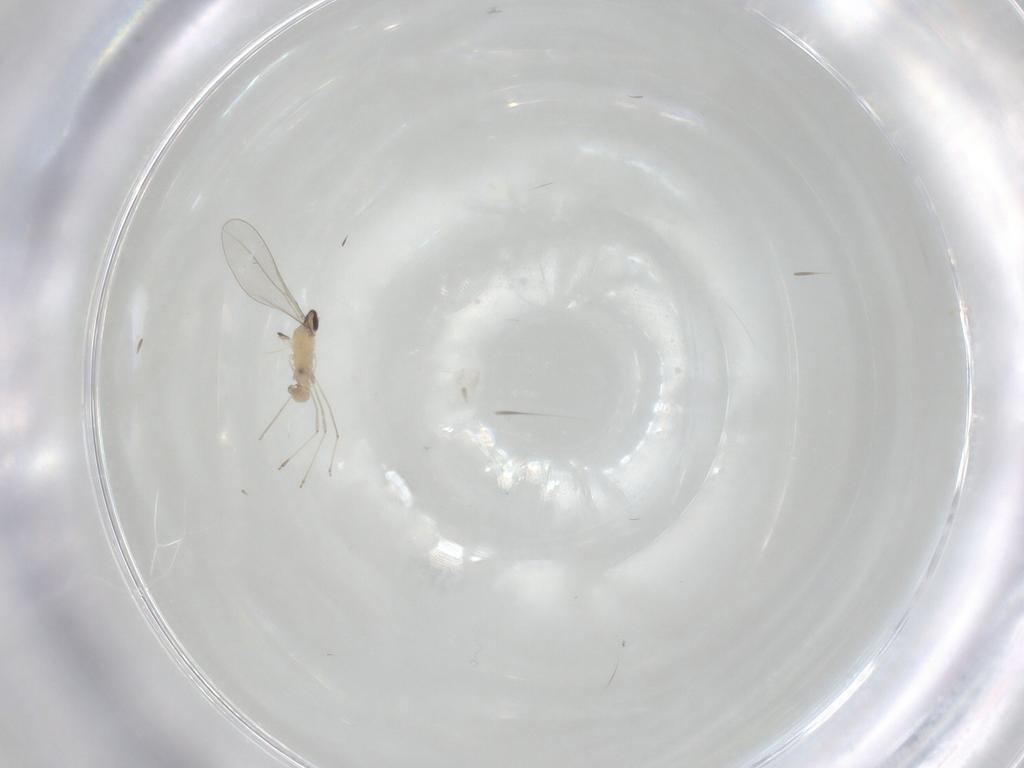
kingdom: Animalia
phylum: Arthropoda
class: Insecta
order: Diptera
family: Cecidomyiidae
